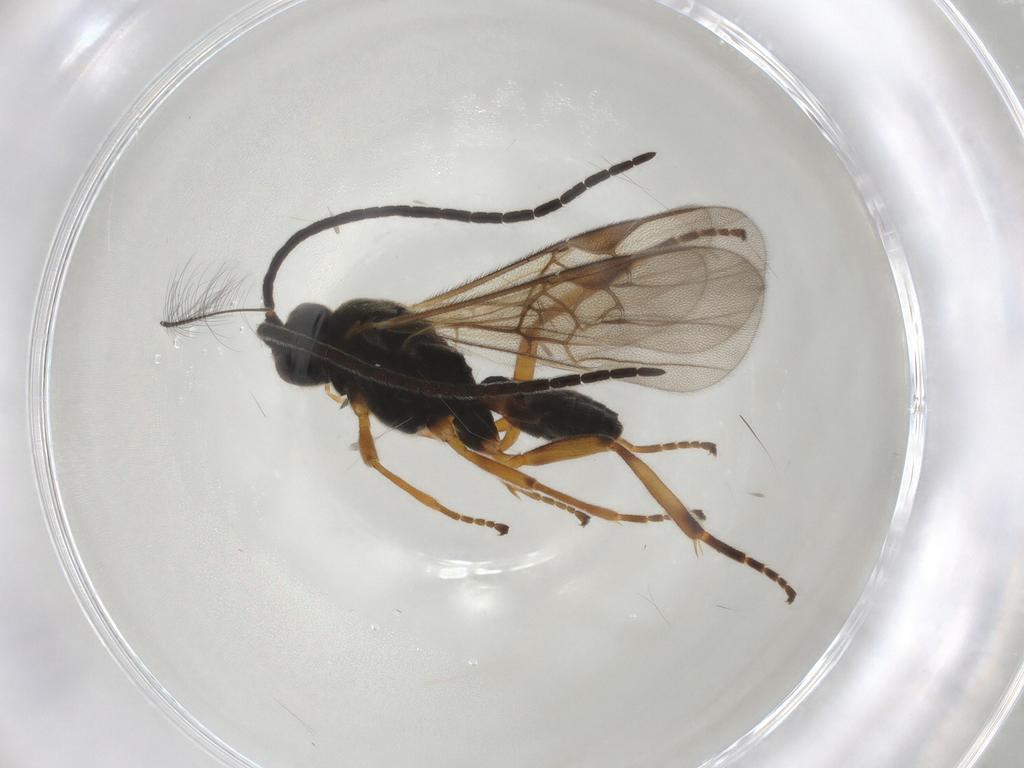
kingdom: Animalia
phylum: Arthropoda
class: Insecta
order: Hymenoptera
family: Braconidae
